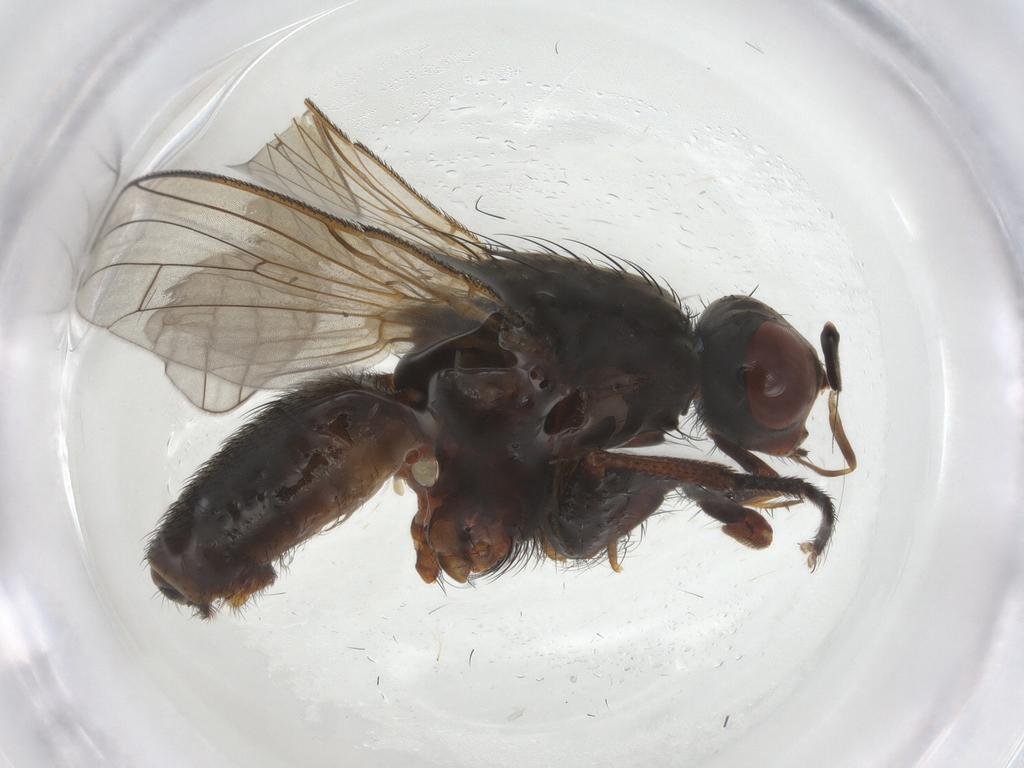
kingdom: Animalia
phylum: Arthropoda
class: Insecta
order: Diptera
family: Anthomyiidae
